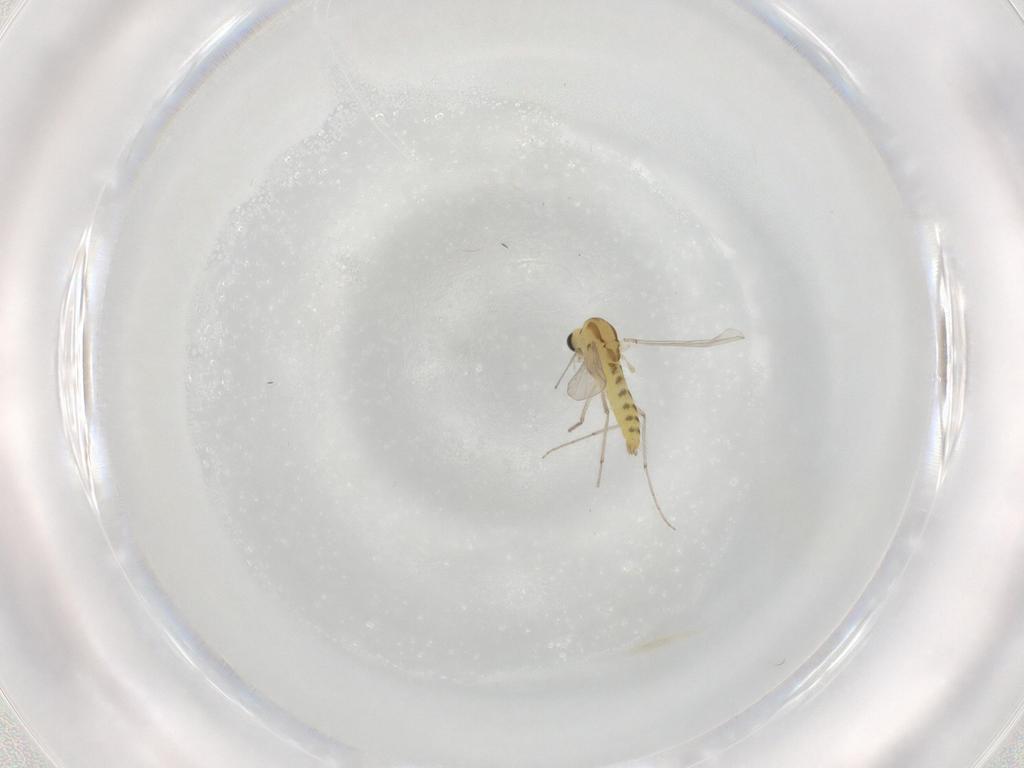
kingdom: Animalia
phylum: Arthropoda
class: Insecta
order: Diptera
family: Chironomidae
